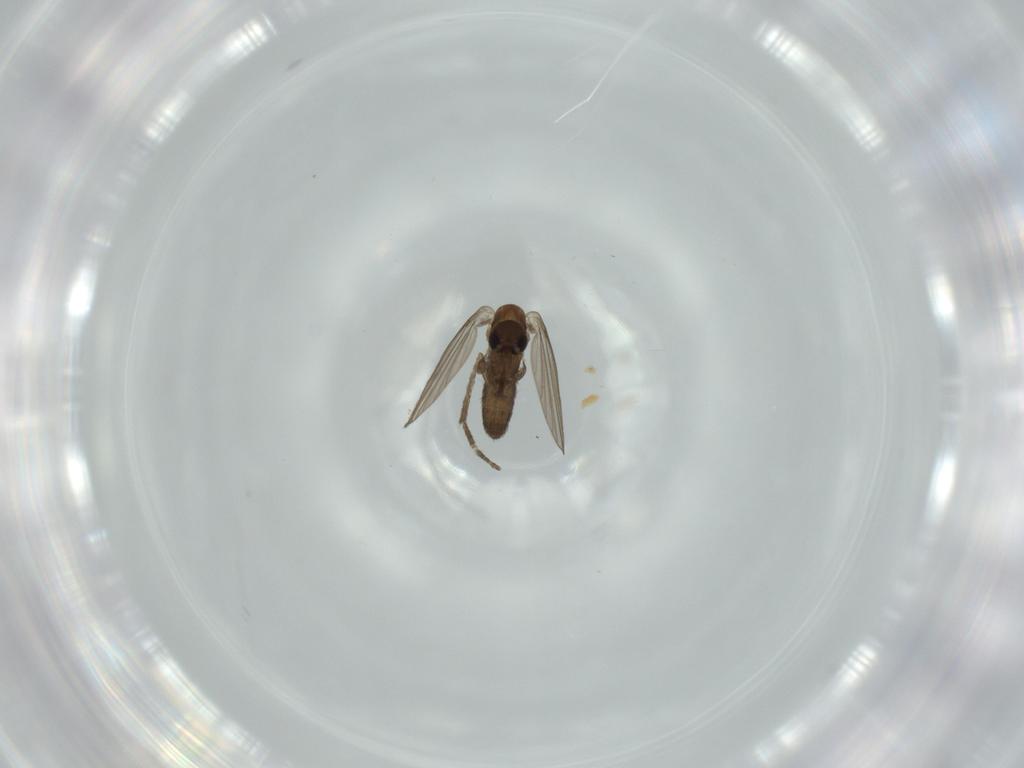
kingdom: Animalia
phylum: Arthropoda
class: Insecta
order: Diptera
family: Psychodidae
